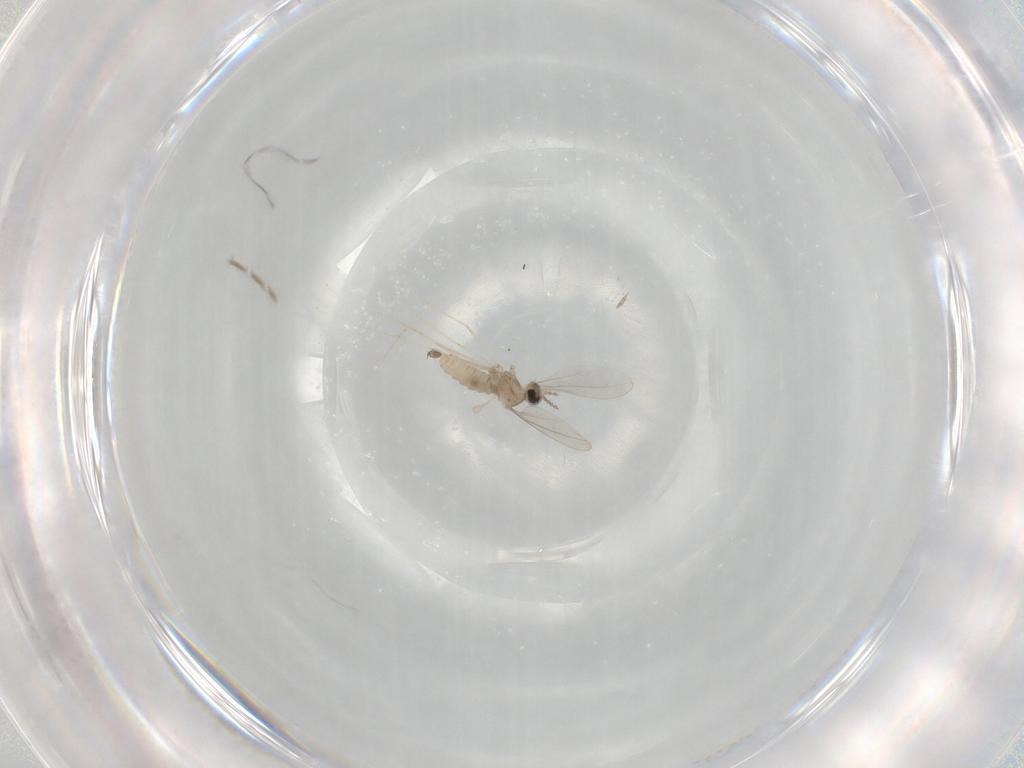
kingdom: Animalia
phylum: Arthropoda
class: Insecta
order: Diptera
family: Cecidomyiidae
